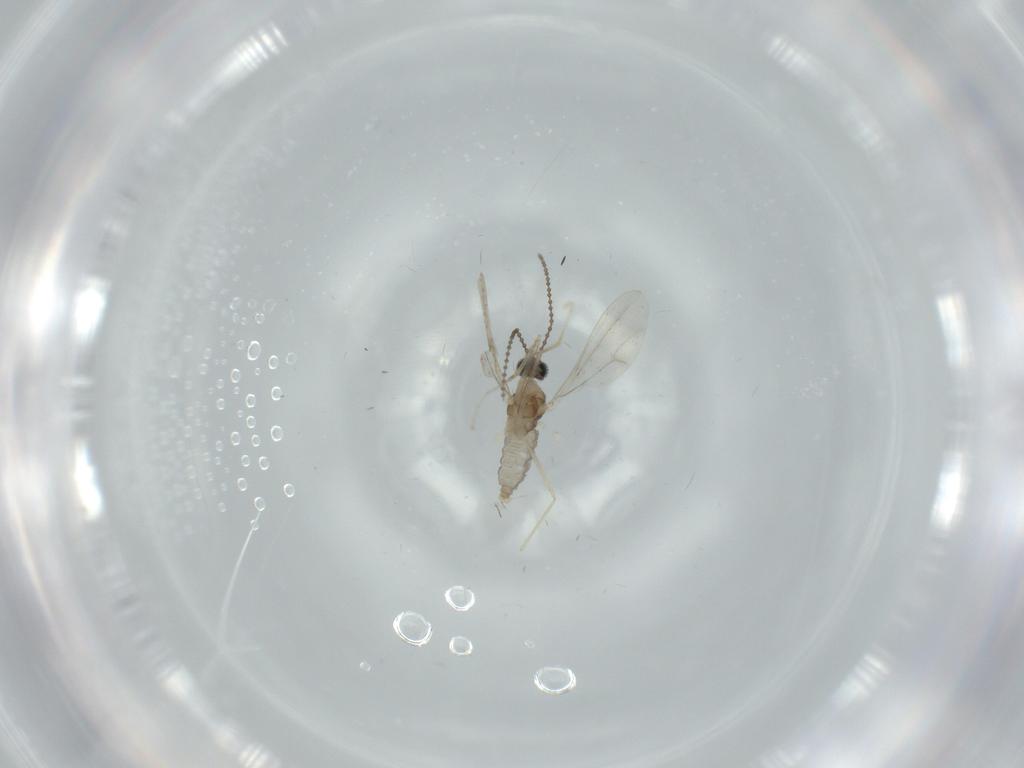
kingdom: Animalia
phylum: Arthropoda
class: Insecta
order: Diptera
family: Cecidomyiidae
